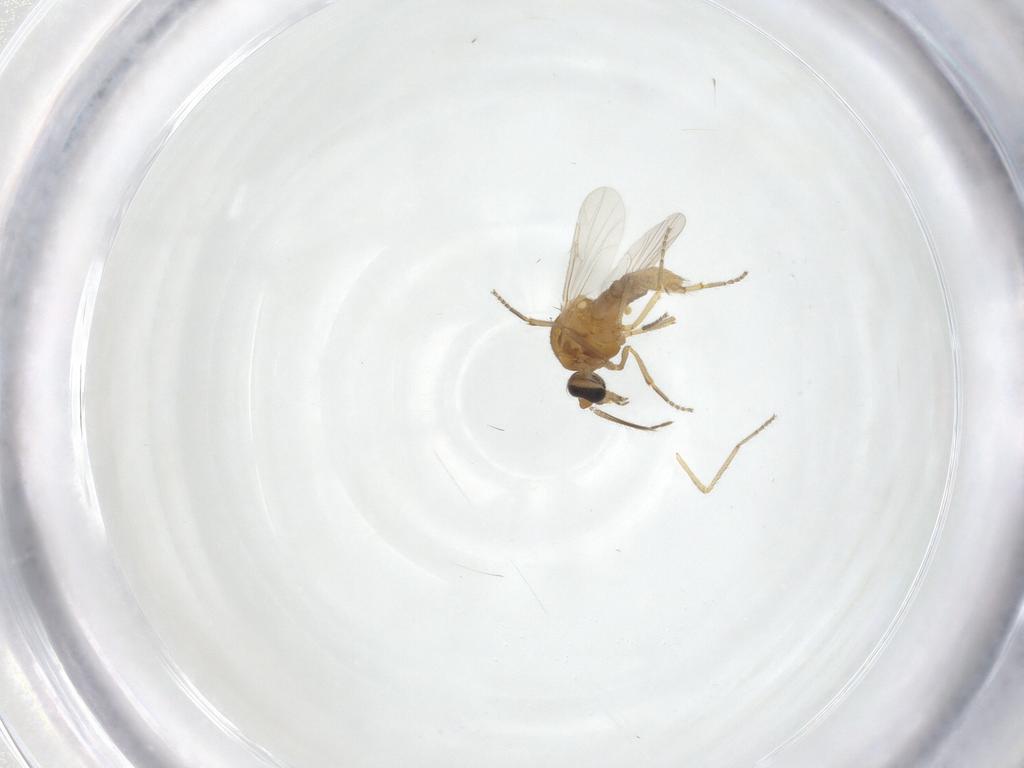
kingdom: Animalia
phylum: Arthropoda
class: Insecta
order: Diptera
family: Ceratopogonidae
